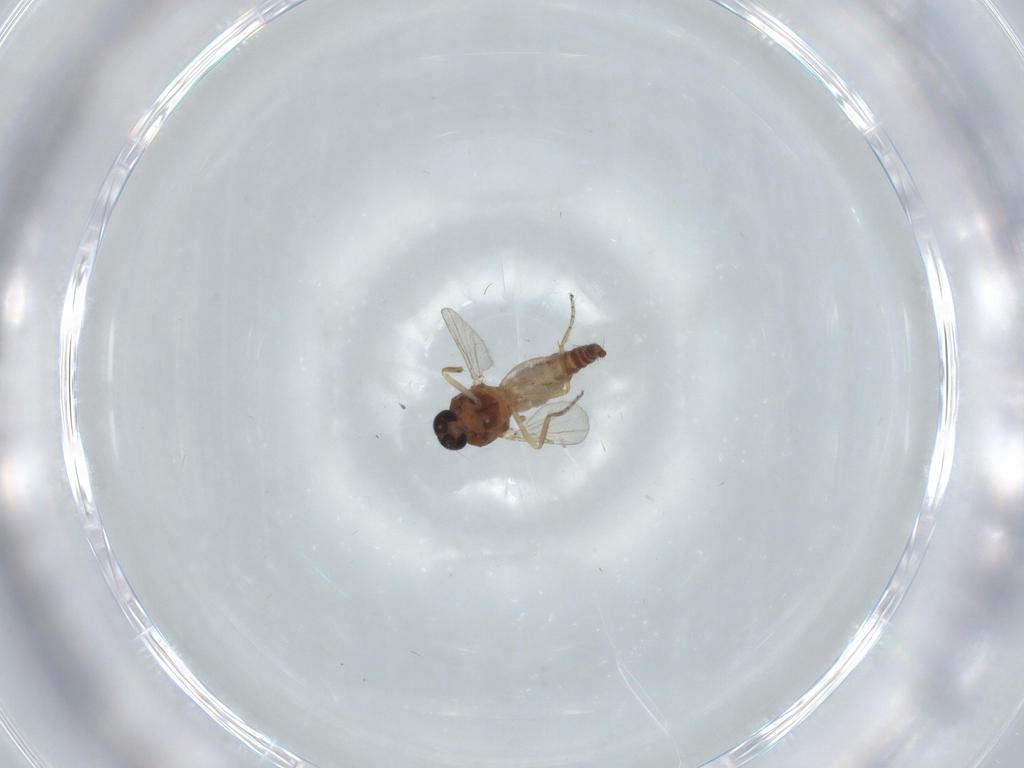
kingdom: Animalia
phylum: Arthropoda
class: Insecta
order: Diptera
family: Ceratopogonidae
